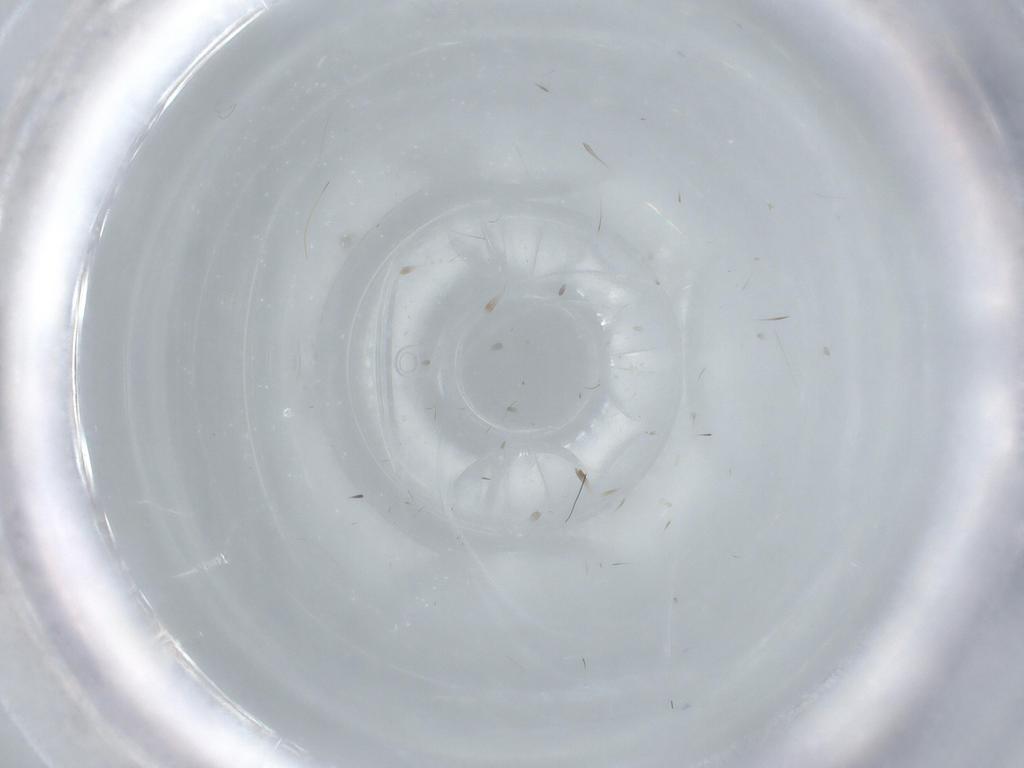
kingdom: Animalia
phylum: Arthropoda
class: Insecta
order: Thysanoptera
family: Thripidae
